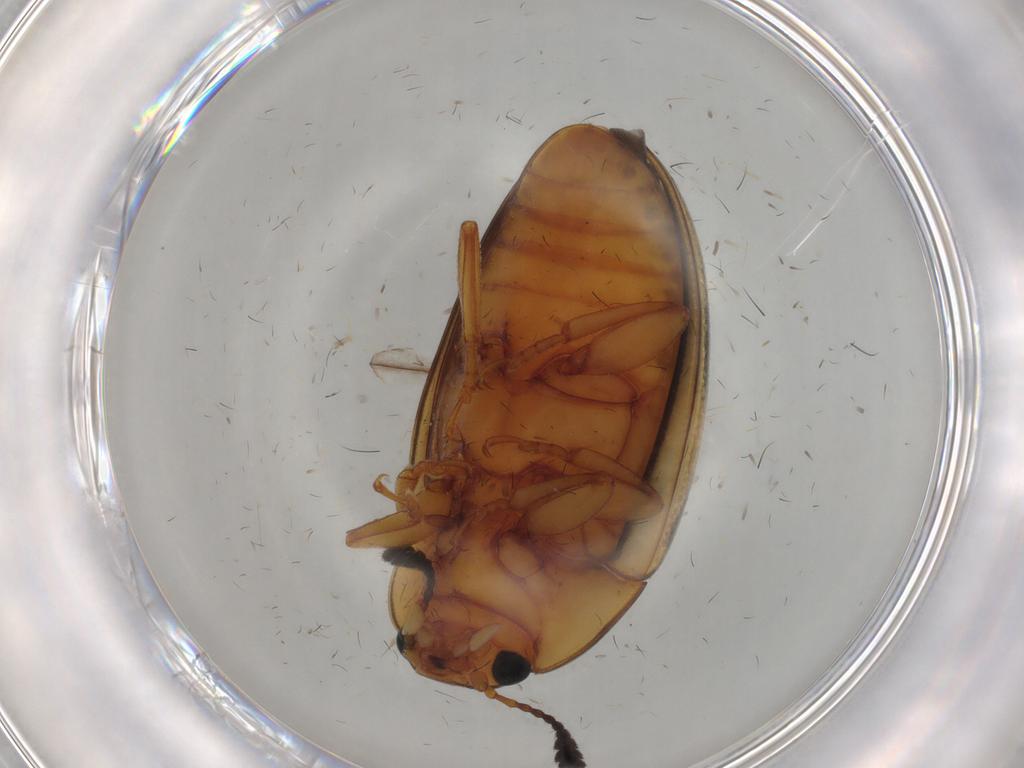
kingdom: Animalia
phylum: Arthropoda
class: Insecta
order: Coleoptera
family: Curculionidae
